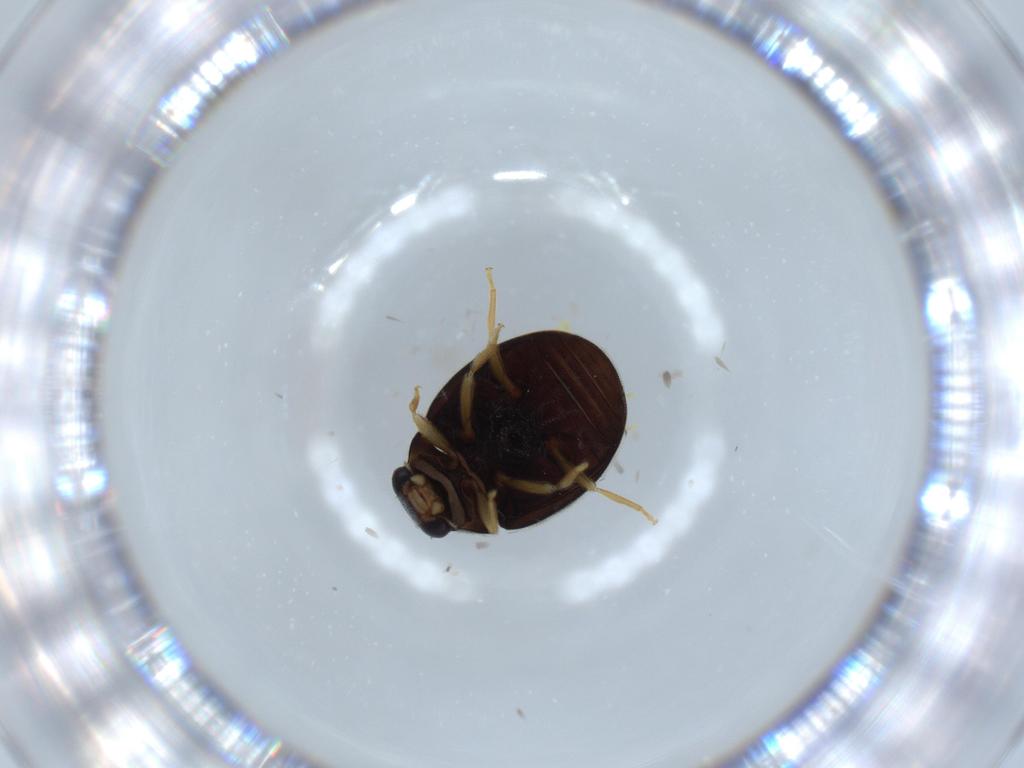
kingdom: Animalia
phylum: Arthropoda
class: Insecta
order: Coleoptera
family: Coccinellidae
